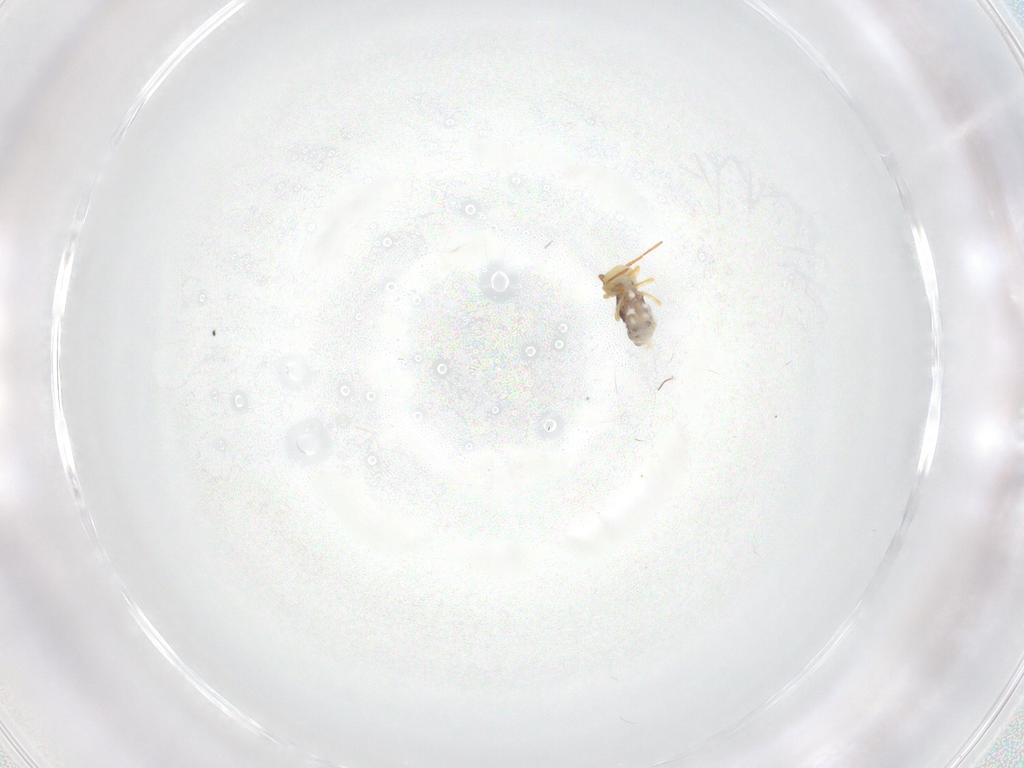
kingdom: Animalia
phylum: Arthropoda
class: Collembola
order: Symphypleona
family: Bourletiellidae
